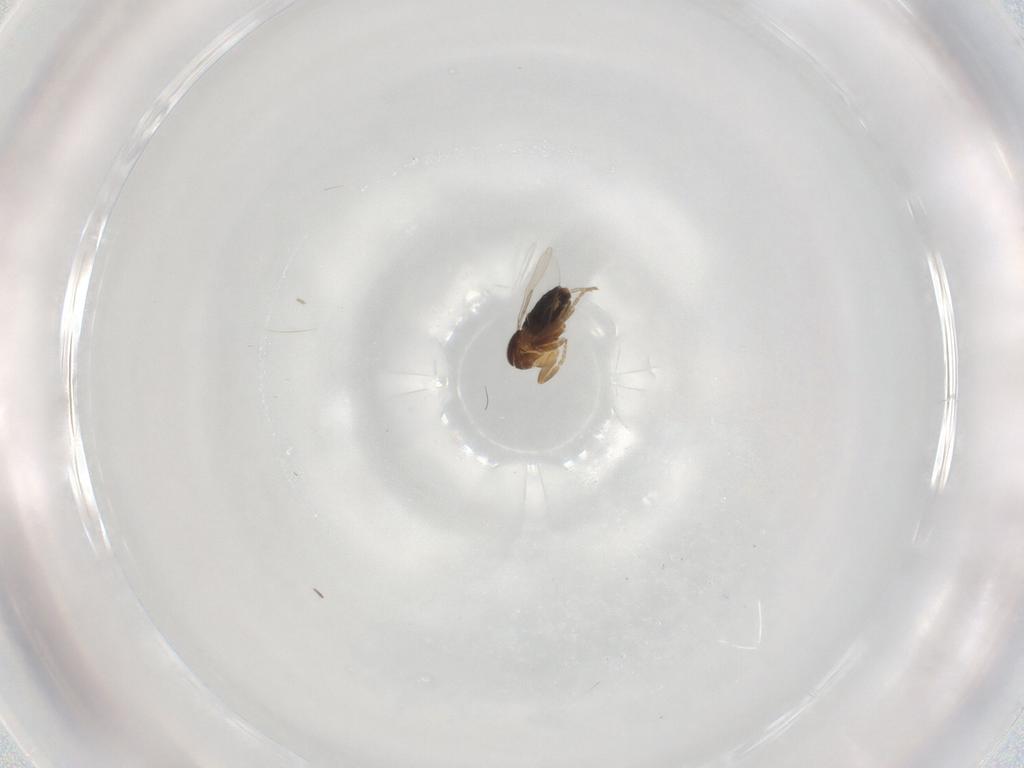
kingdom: Animalia
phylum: Arthropoda
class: Insecta
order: Diptera
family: Phoridae
